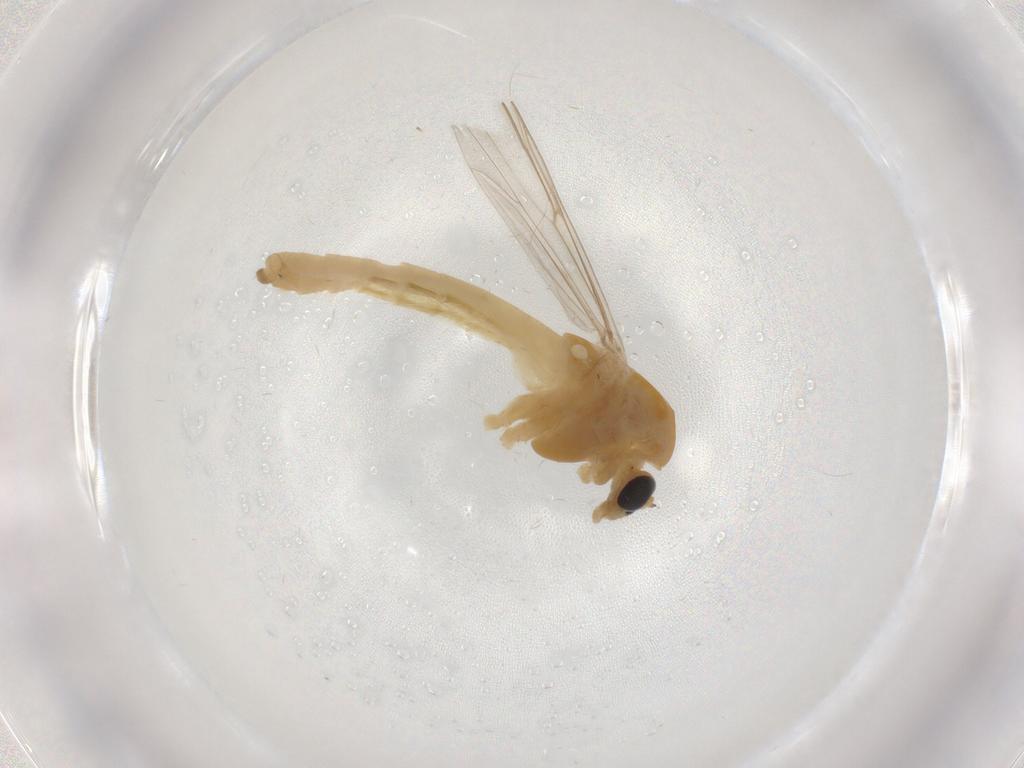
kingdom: Animalia
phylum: Arthropoda
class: Insecta
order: Diptera
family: Chironomidae
